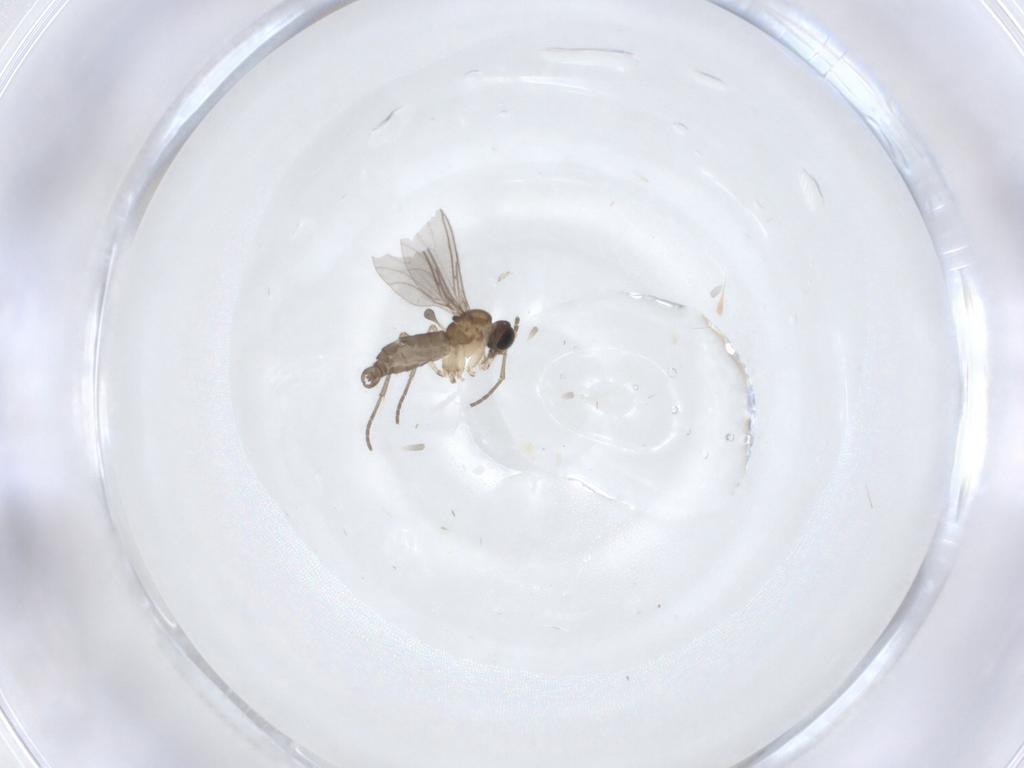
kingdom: Animalia
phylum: Arthropoda
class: Insecta
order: Diptera
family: Sciaridae
